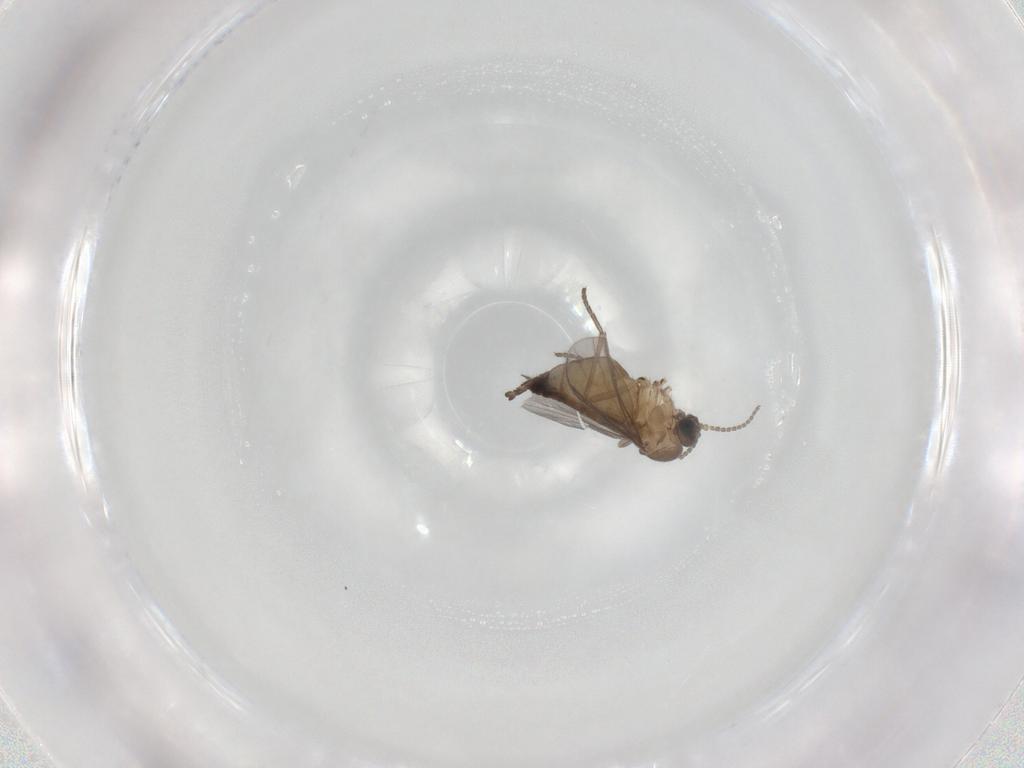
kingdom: Animalia
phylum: Arthropoda
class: Insecta
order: Diptera
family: Sciaridae
